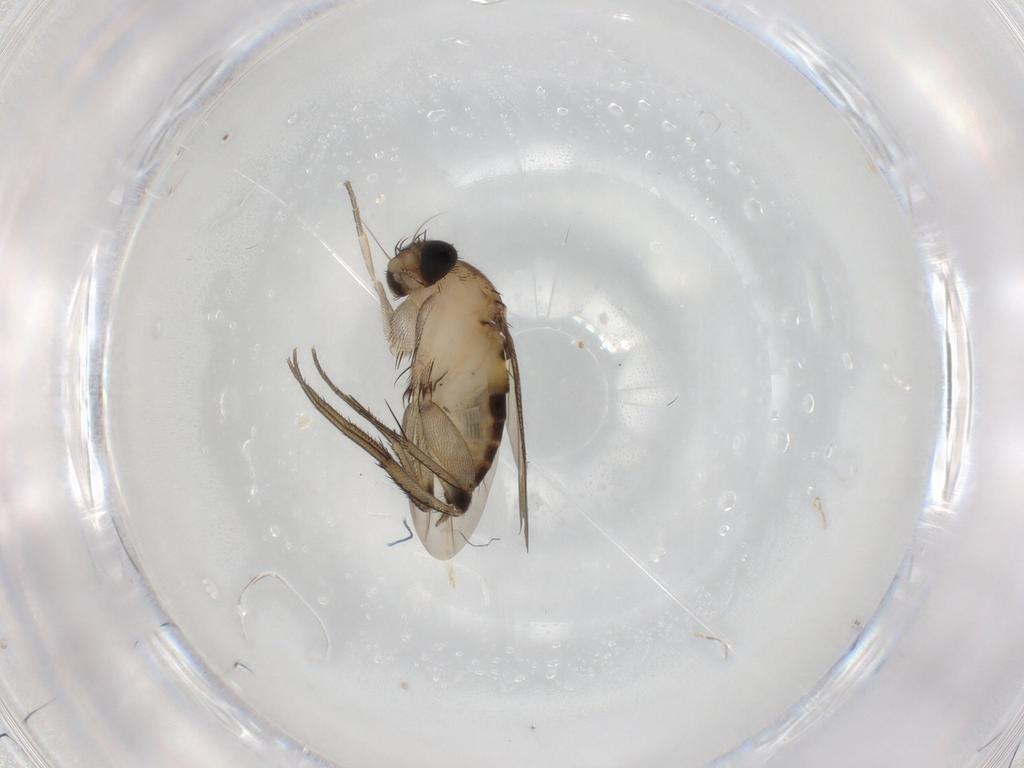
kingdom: Animalia
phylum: Arthropoda
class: Insecta
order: Diptera
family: Phoridae
